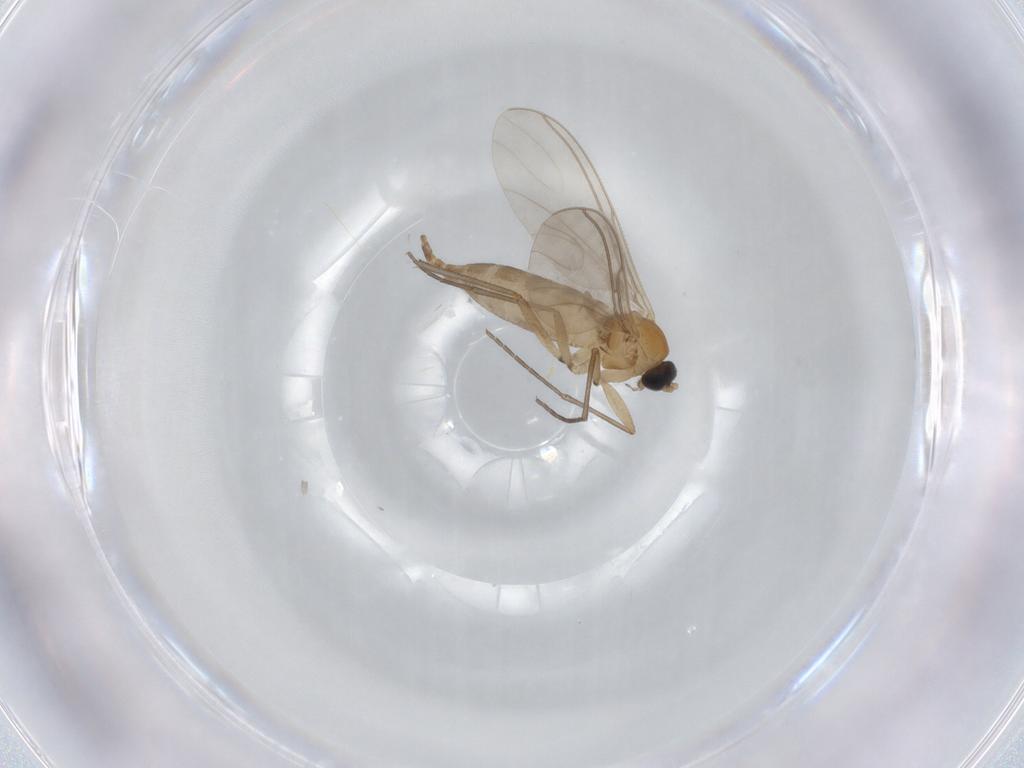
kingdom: Animalia
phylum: Arthropoda
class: Insecta
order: Diptera
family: Sciaridae
